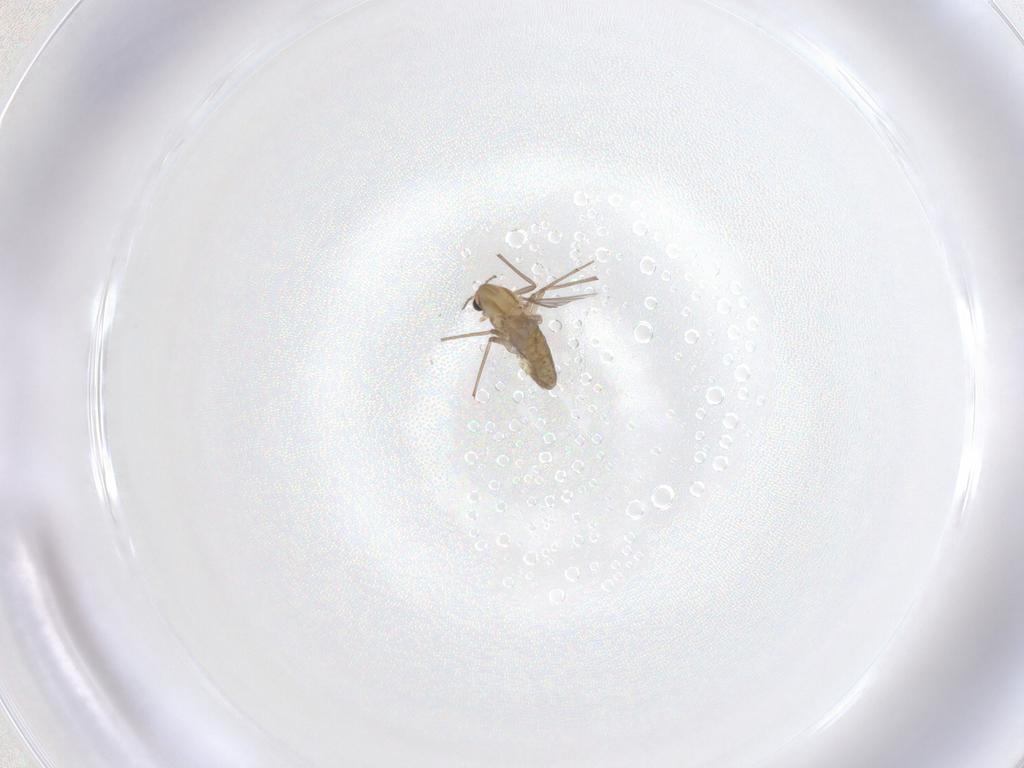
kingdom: Animalia
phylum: Arthropoda
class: Insecta
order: Diptera
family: Chironomidae
